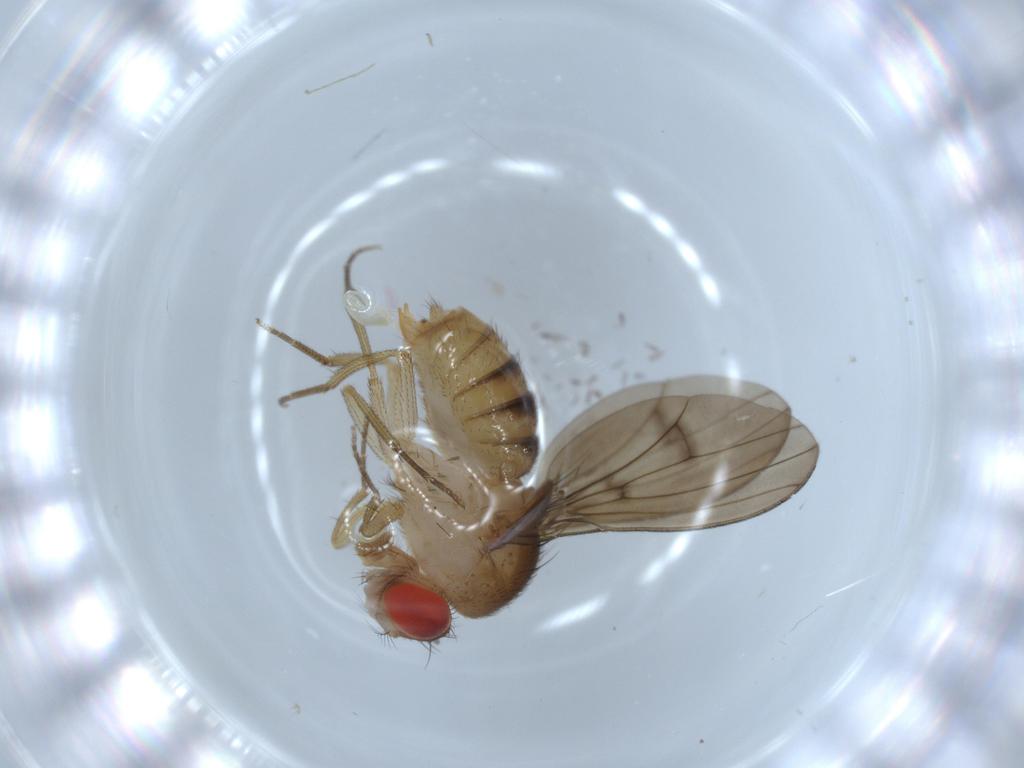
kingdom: Animalia
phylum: Arthropoda
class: Insecta
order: Diptera
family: Drosophilidae
